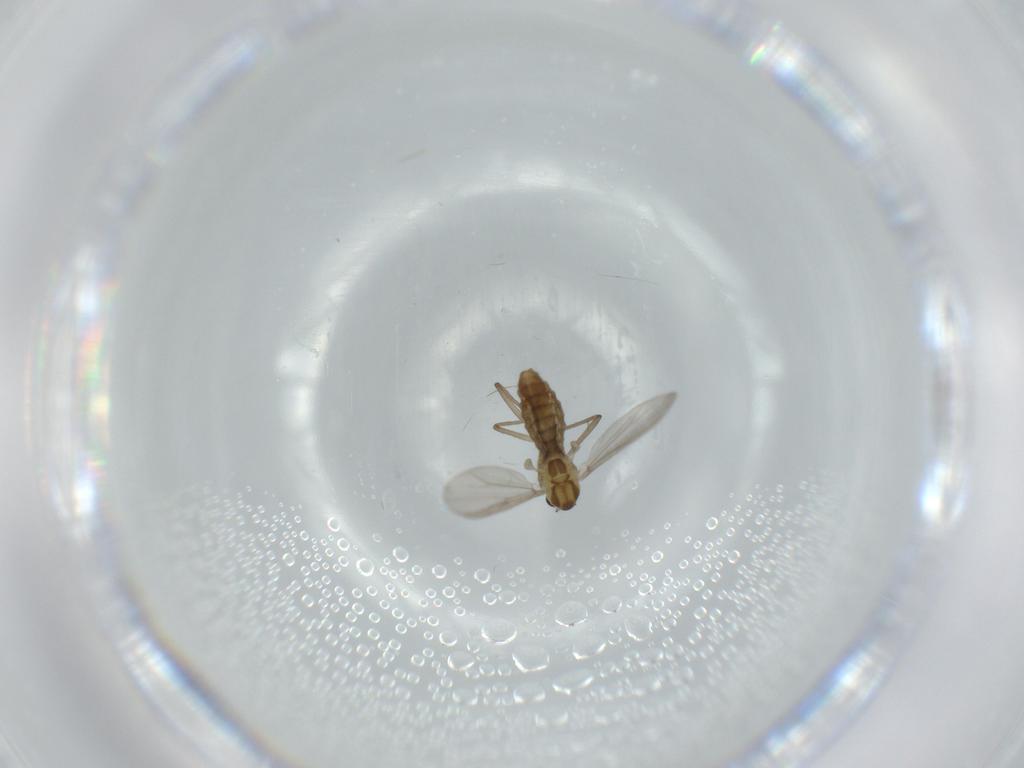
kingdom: Animalia
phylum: Arthropoda
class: Insecta
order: Diptera
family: Chironomidae
